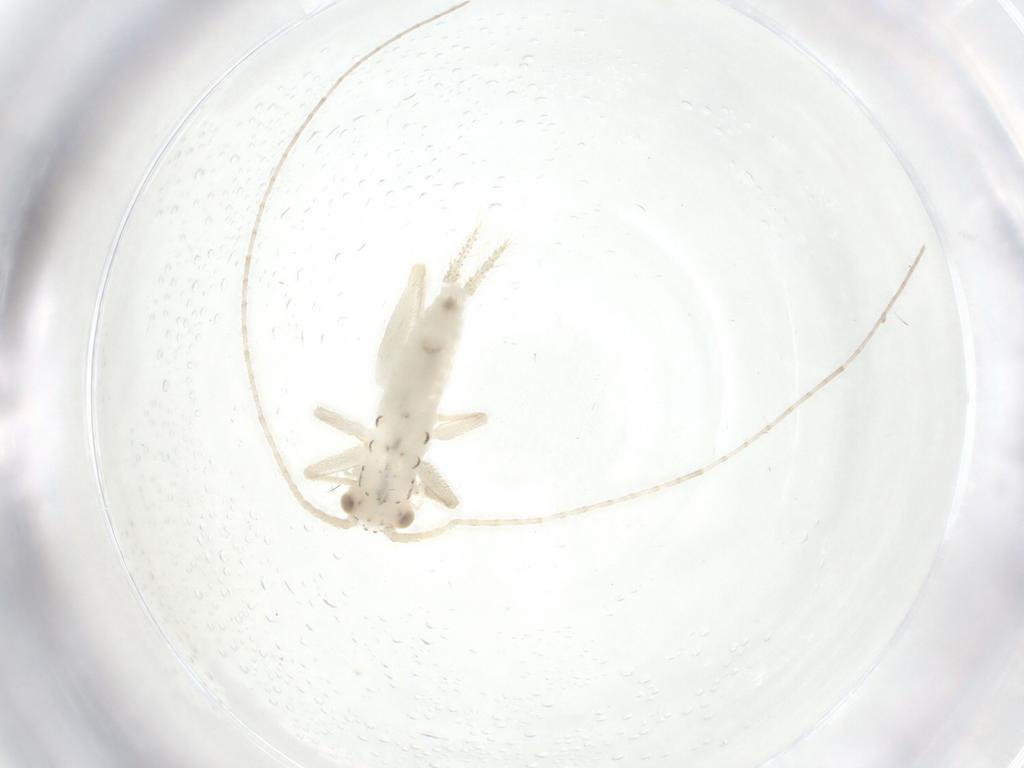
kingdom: Animalia
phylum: Arthropoda
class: Insecta
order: Orthoptera
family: Trigonidiidae
